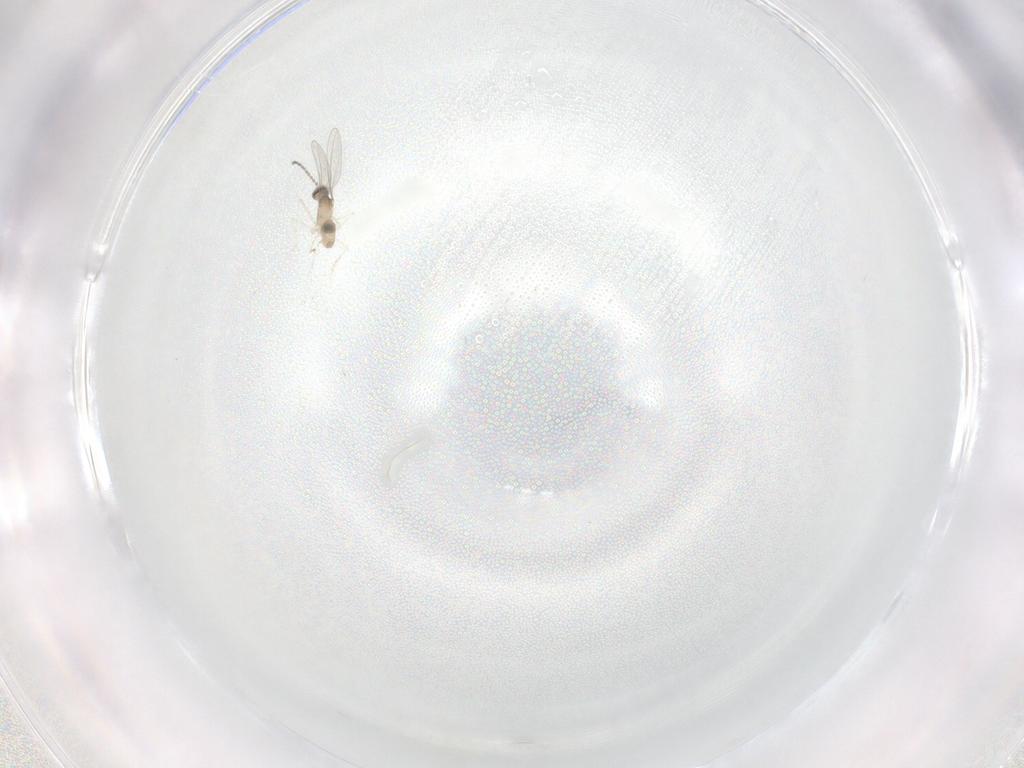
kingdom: Animalia
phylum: Arthropoda
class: Insecta
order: Diptera
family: Cecidomyiidae
